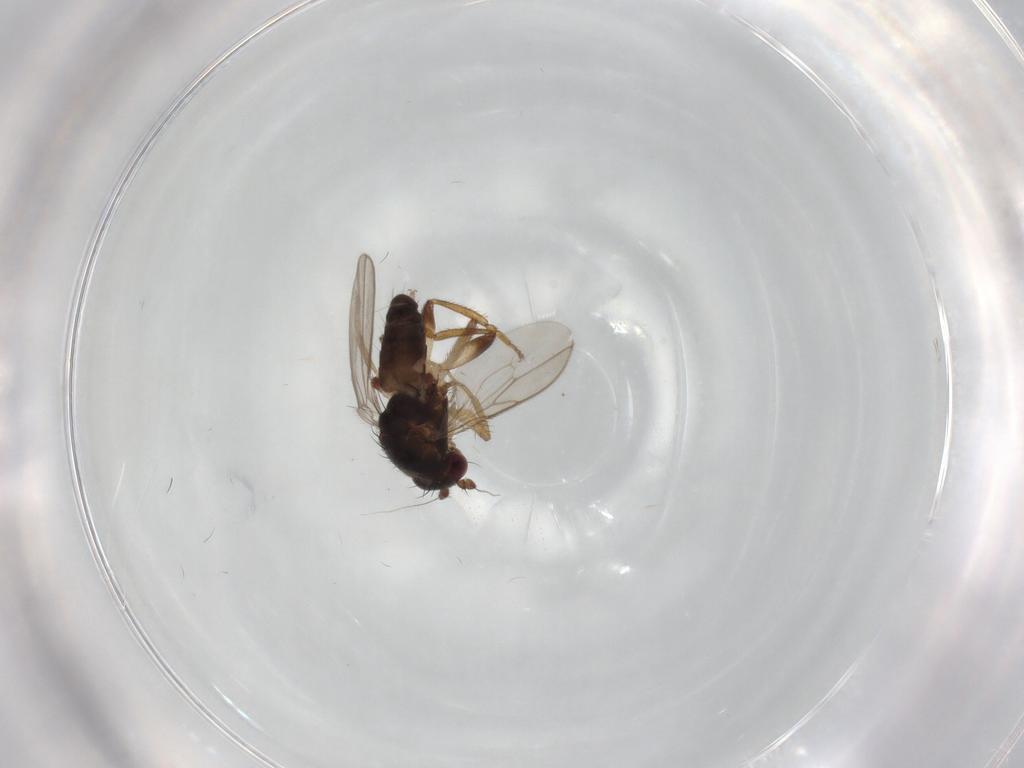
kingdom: Animalia
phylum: Arthropoda
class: Insecta
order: Diptera
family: Sphaeroceridae
